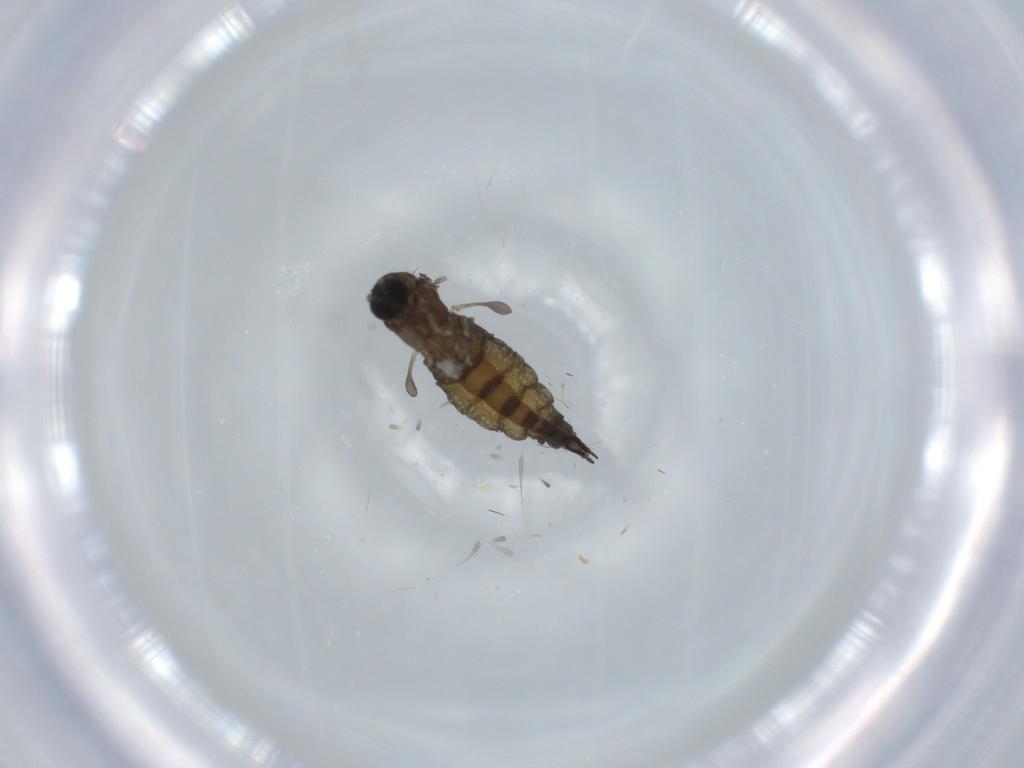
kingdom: Animalia
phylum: Arthropoda
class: Insecta
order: Diptera
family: Sciaridae
